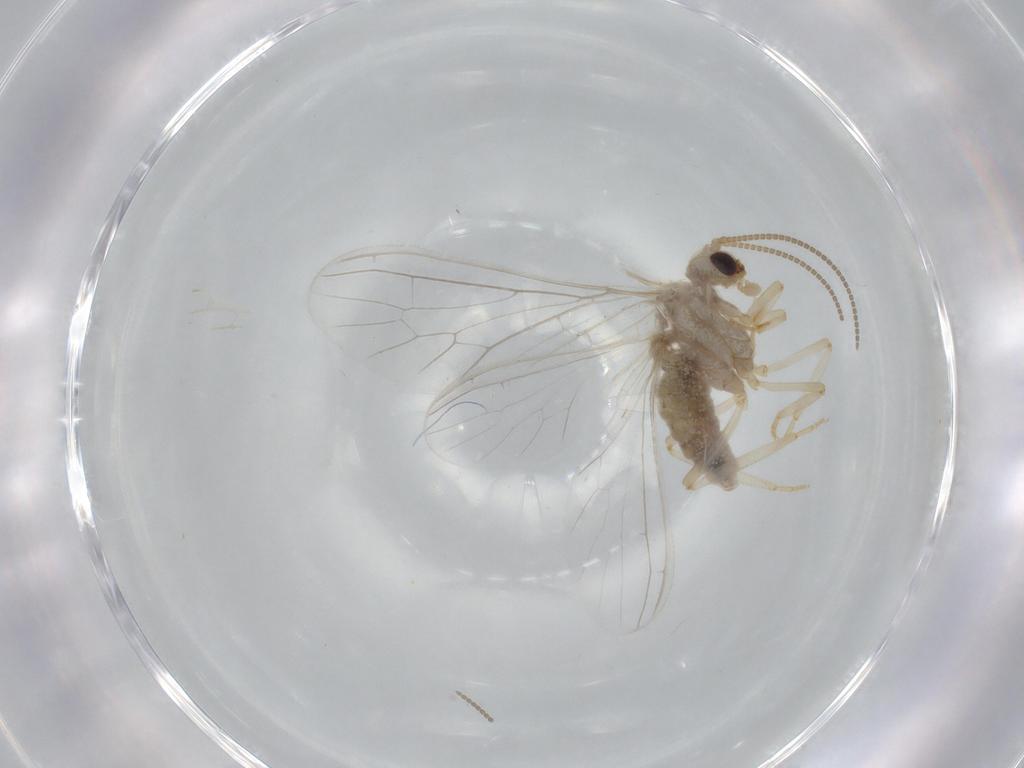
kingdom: Animalia
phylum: Arthropoda
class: Insecta
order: Neuroptera
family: Coniopterygidae
